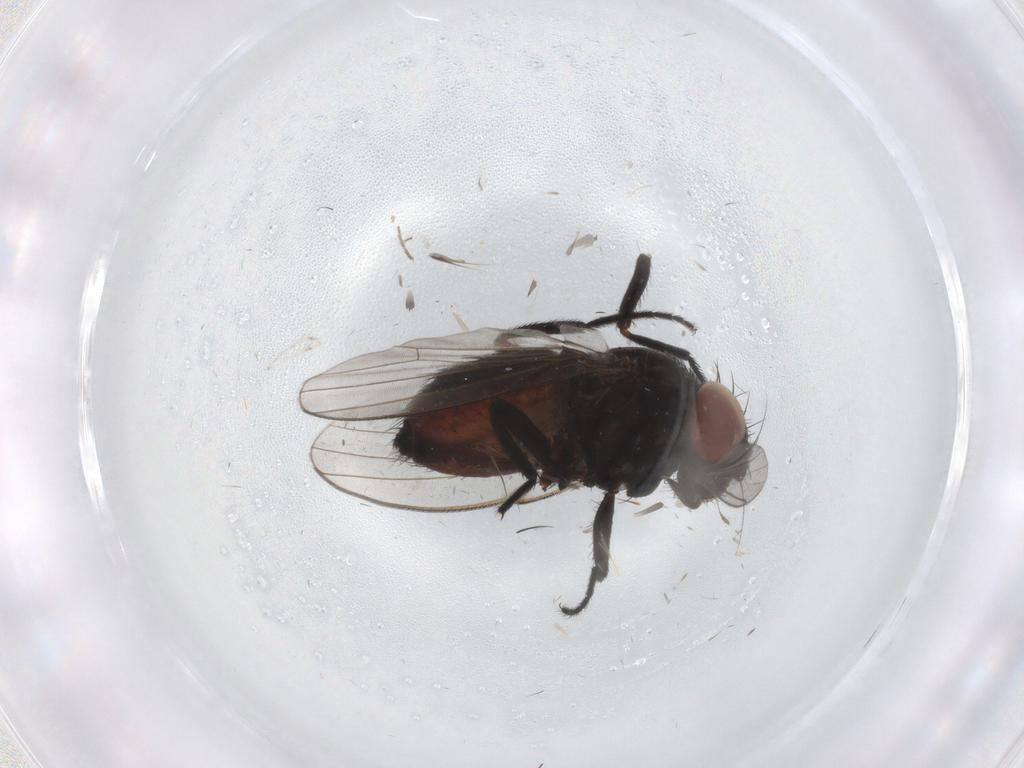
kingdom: Animalia
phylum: Arthropoda
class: Insecta
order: Diptera
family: Milichiidae
